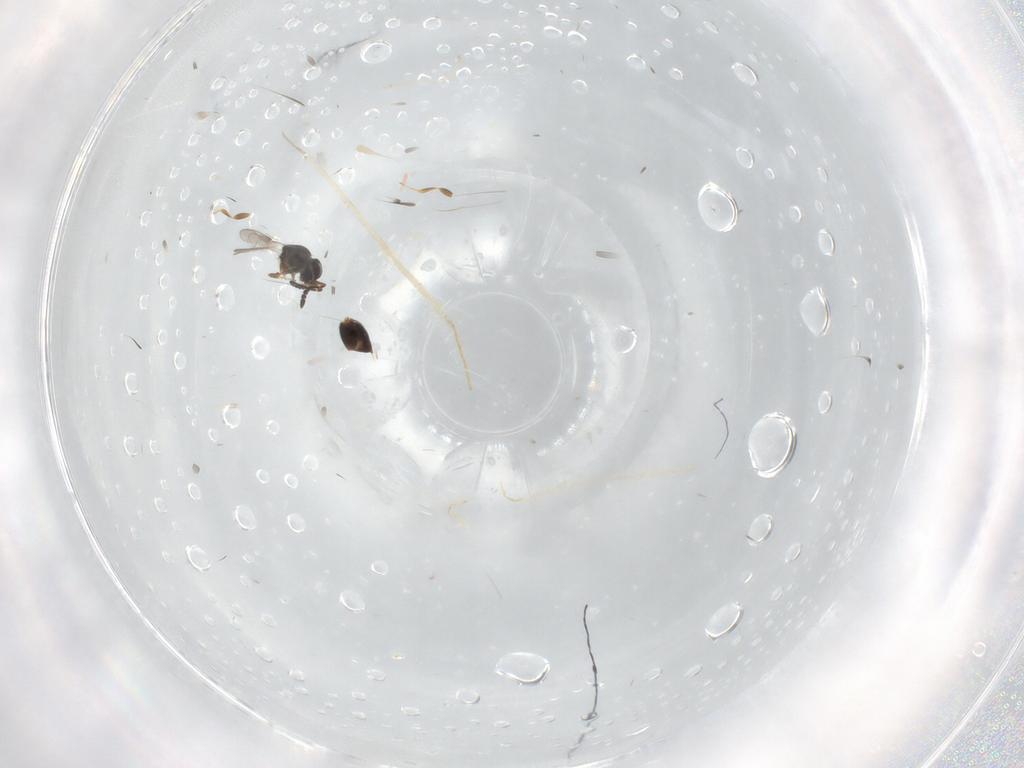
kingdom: Animalia
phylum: Arthropoda
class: Insecta
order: Hymenoptera
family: Ceraphronidae
